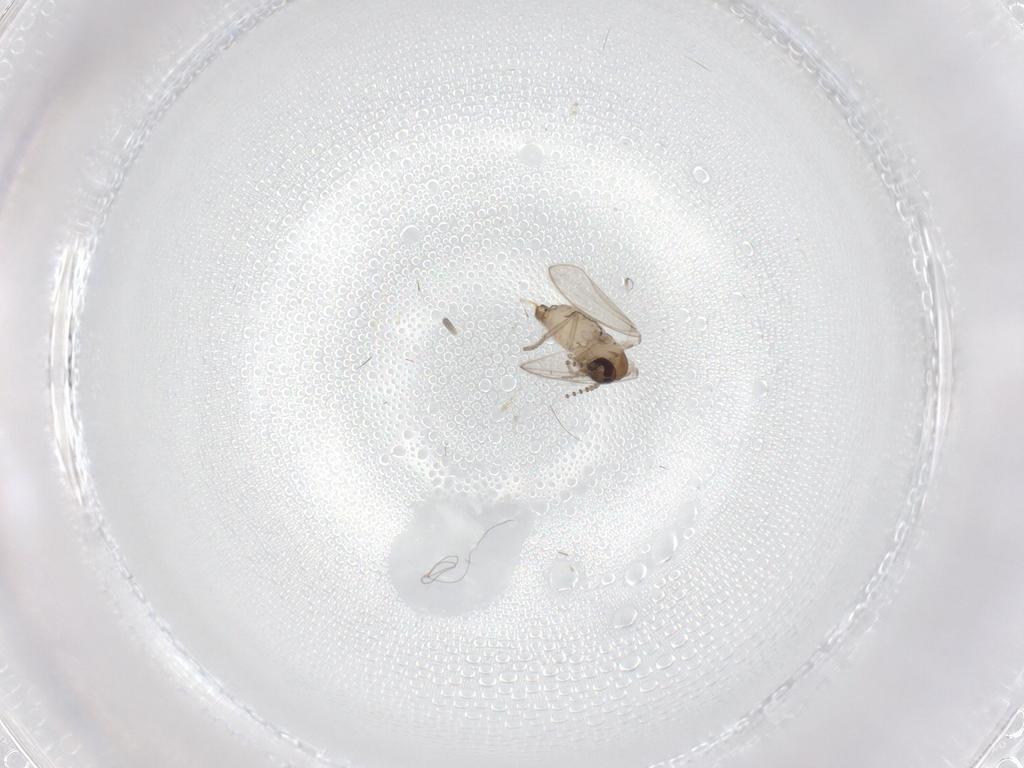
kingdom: Animalia
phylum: Arthropoda
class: Insecta
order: Diptera
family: Psychodidae
